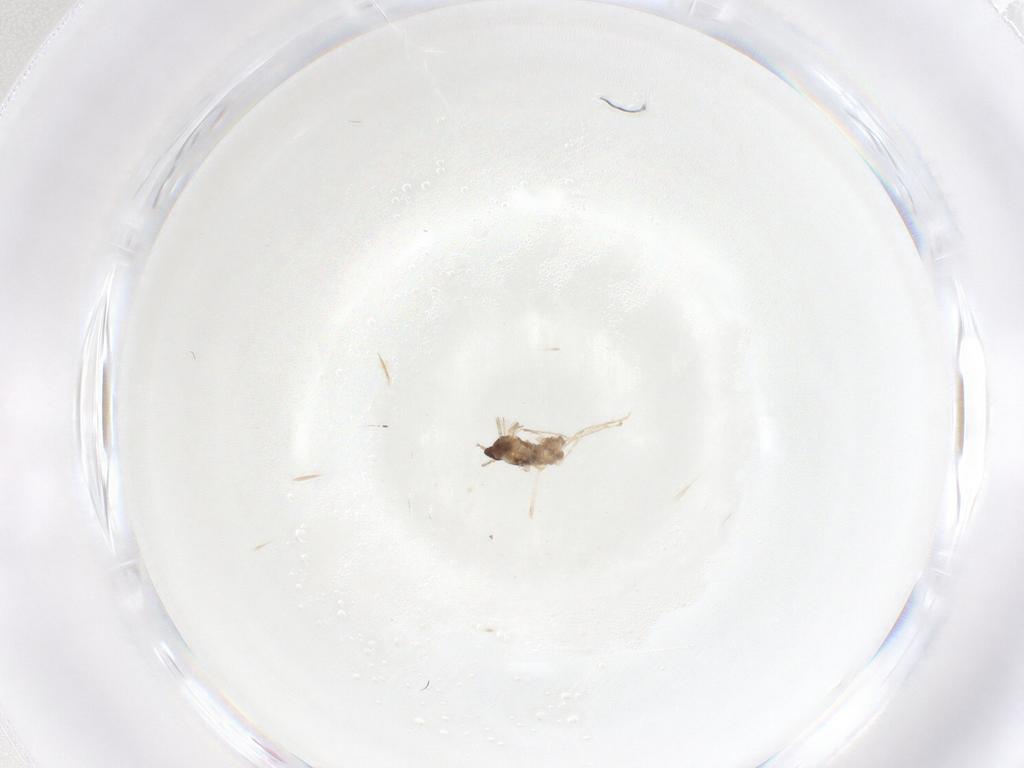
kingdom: Animalia
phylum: Arthropoda
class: Insecta
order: Diptera
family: Cecidomyiidae
